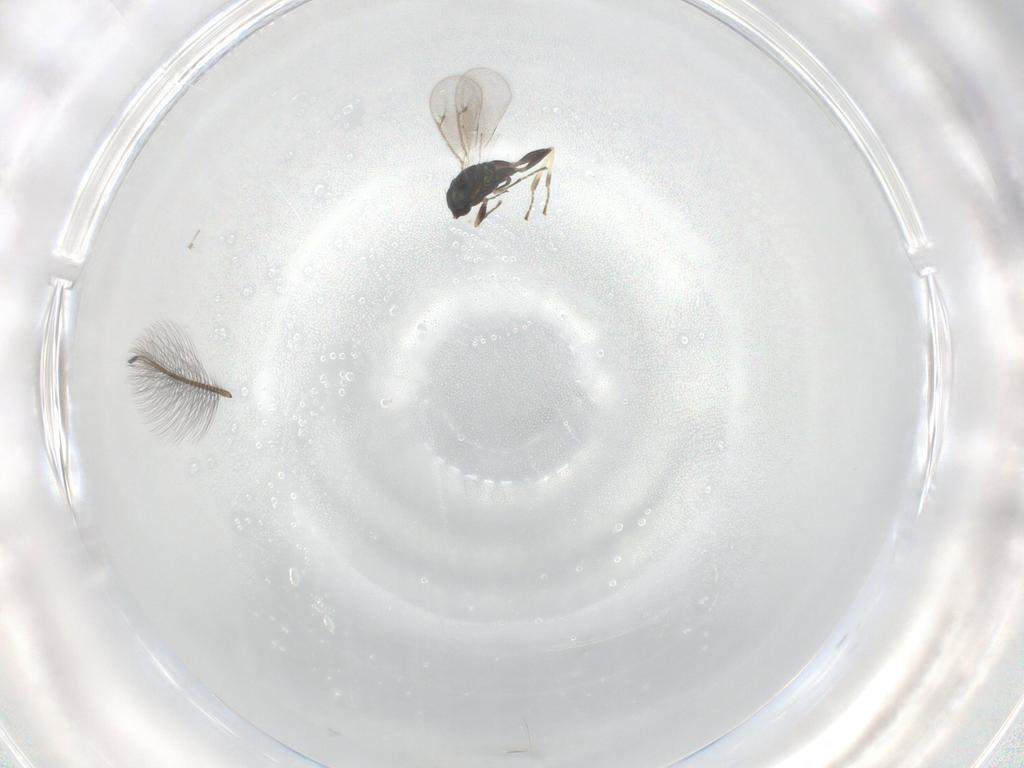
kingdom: Animalia
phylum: Arthropoda
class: Insecta
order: Hymenoptera
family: Eulophidae
